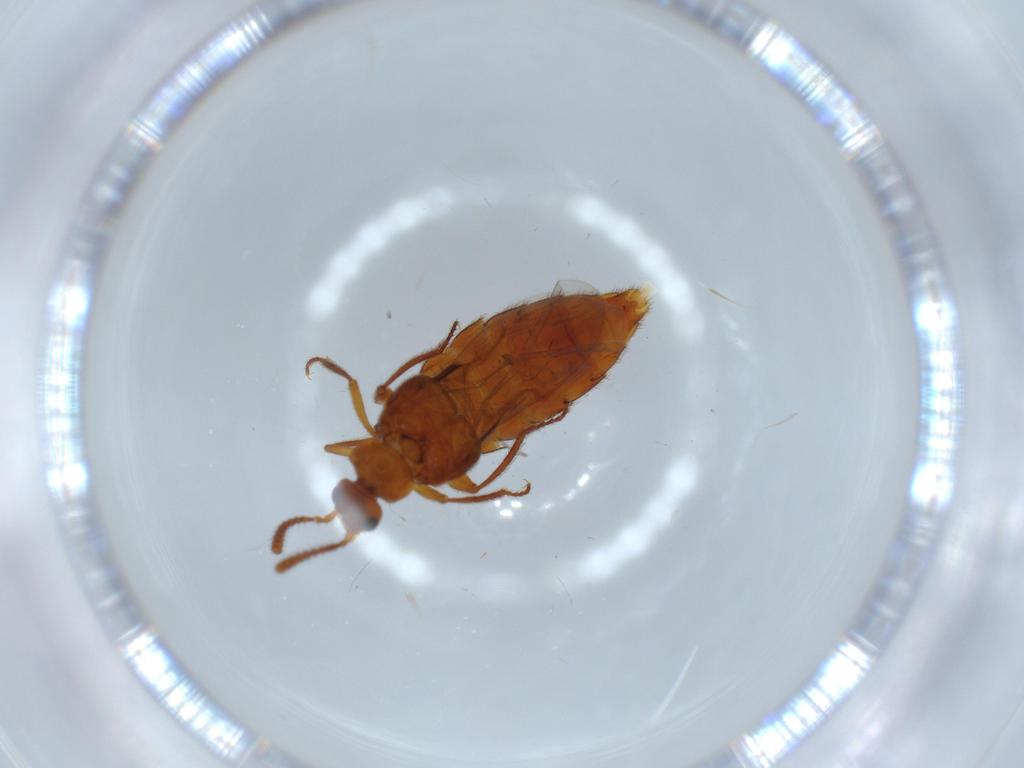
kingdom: Animalia
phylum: Arthropoda
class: Insecta
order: Coleoptera
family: Staphylinidae
